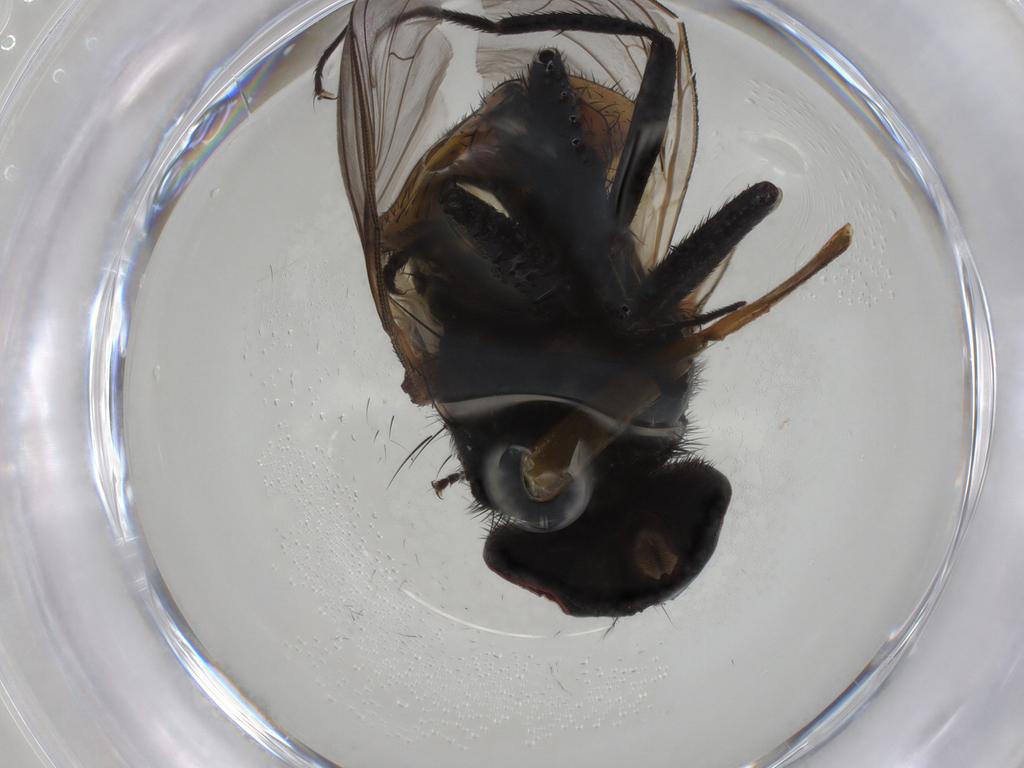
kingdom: Animalia
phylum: Arthropoda
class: Insecta
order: Diptera
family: Muscidae
